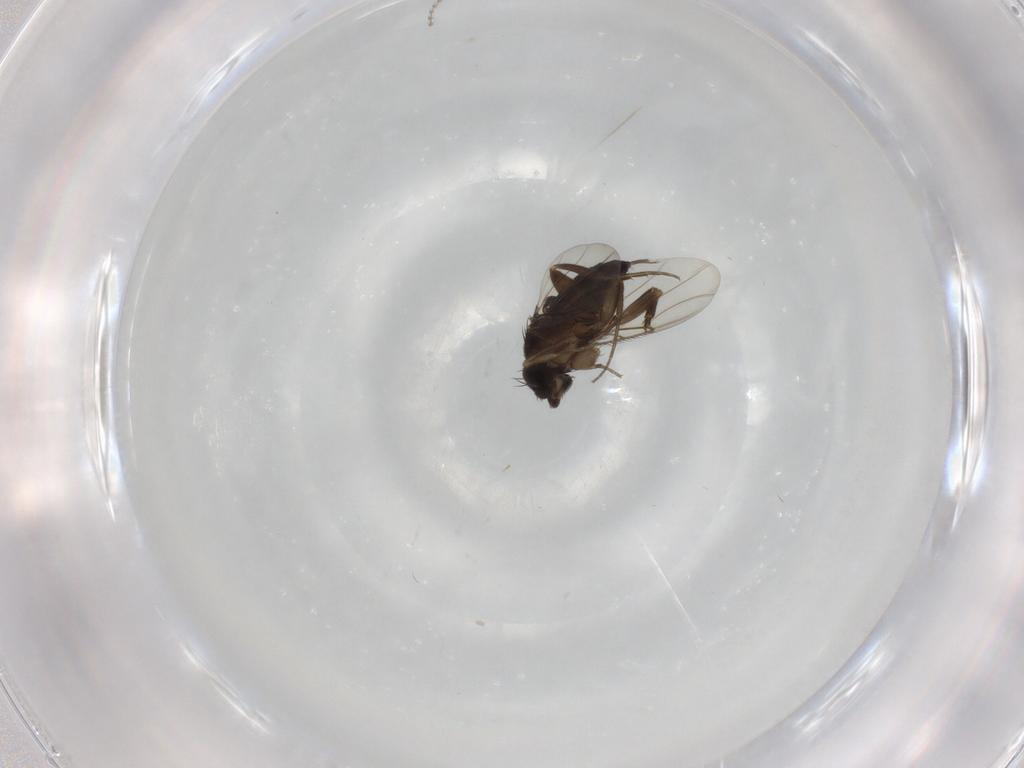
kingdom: Animalia
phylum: Arthropoda
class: Insecta
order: Diptera
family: Phoridae
